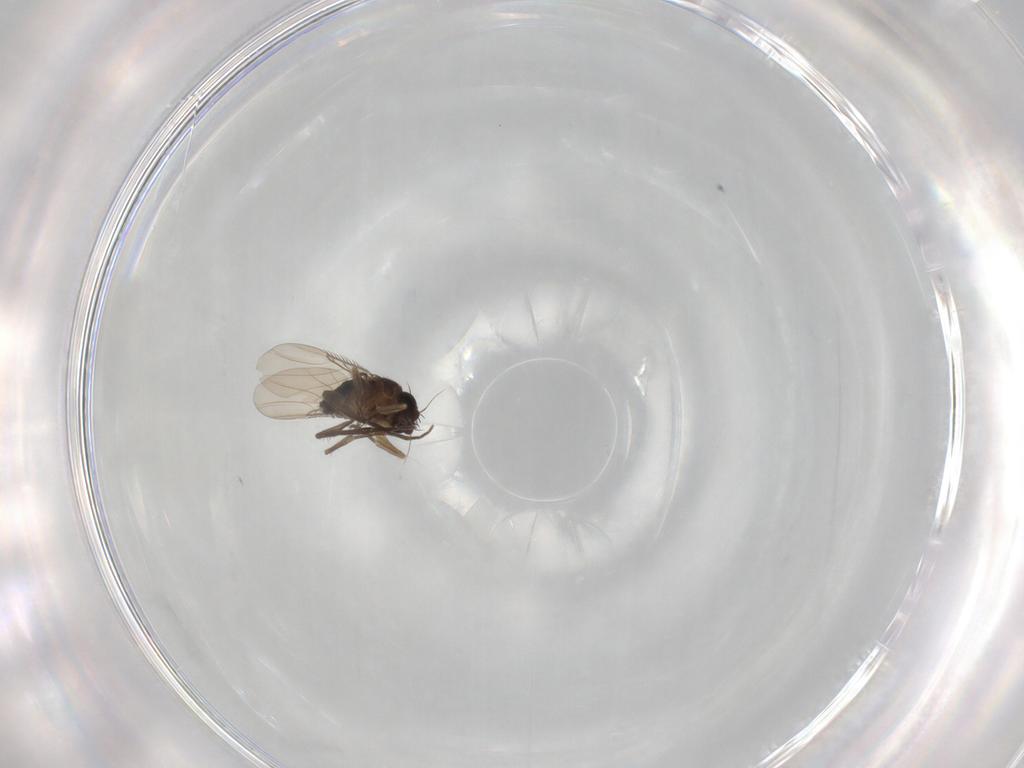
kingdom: Animalia
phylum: Arthropoda
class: Insecta
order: Diptera
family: Phoridae
